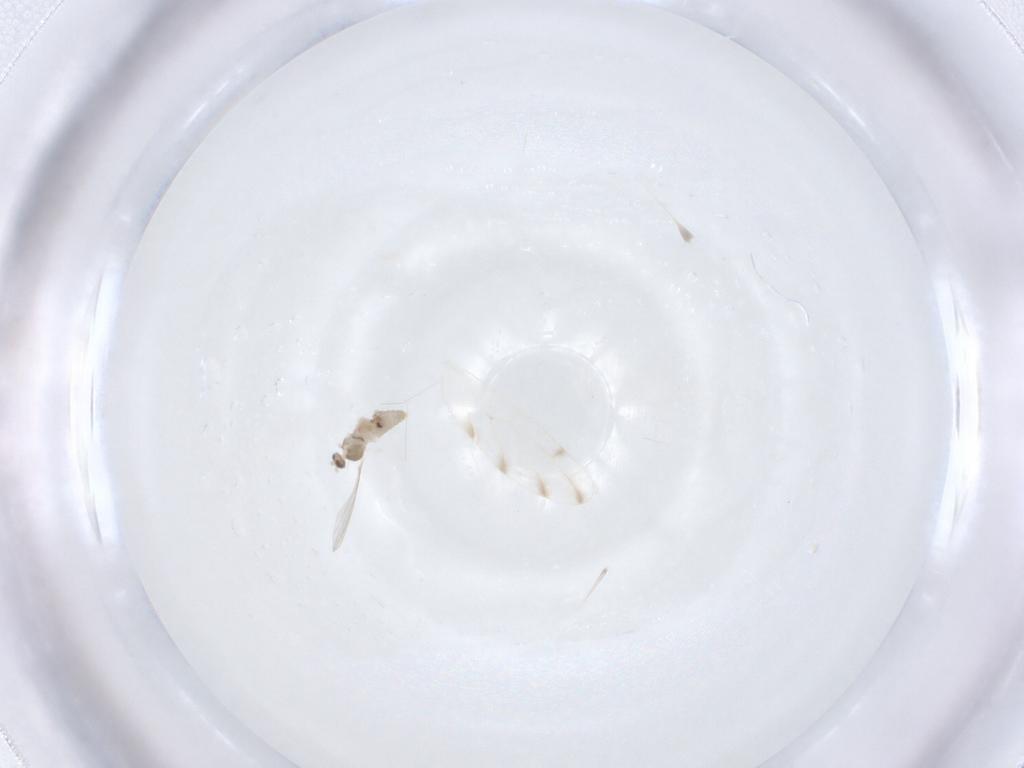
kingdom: Animalia
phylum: Arthropoda
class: Insecta
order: Diptera
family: Cecidomyiidae
